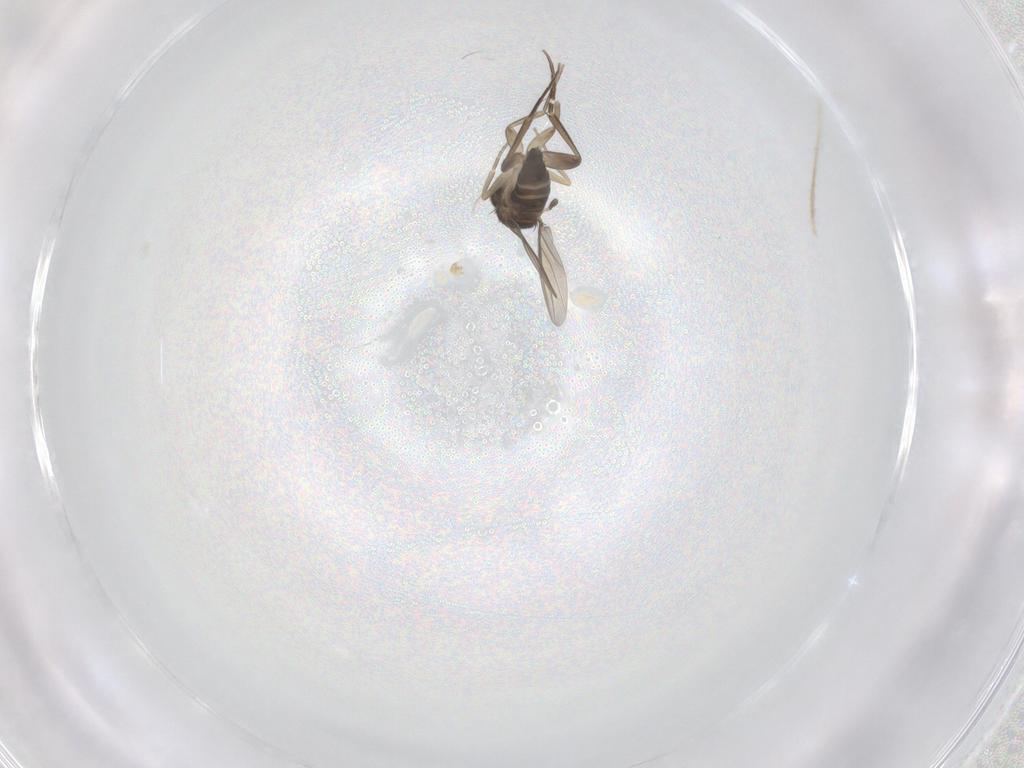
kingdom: Animalia
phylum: Arthropoda
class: Insecta
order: Diptera
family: Phoridae
